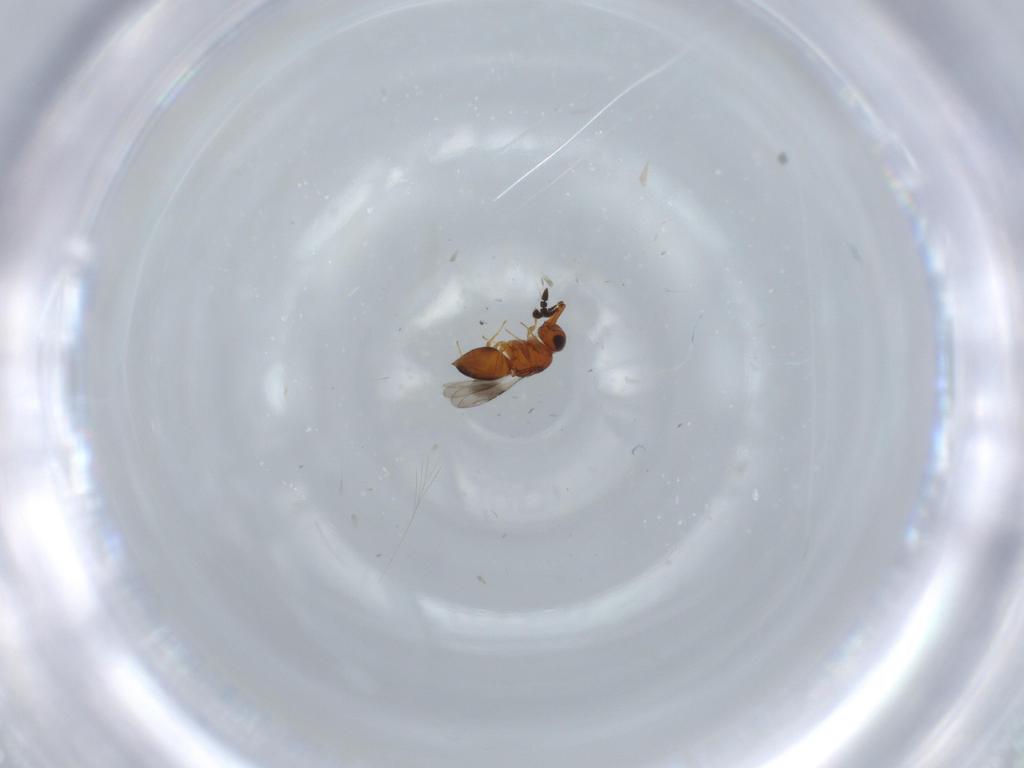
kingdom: Animalia
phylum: Arthropoda
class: Insecta
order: Hymenoptera
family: Ceraphronidae
